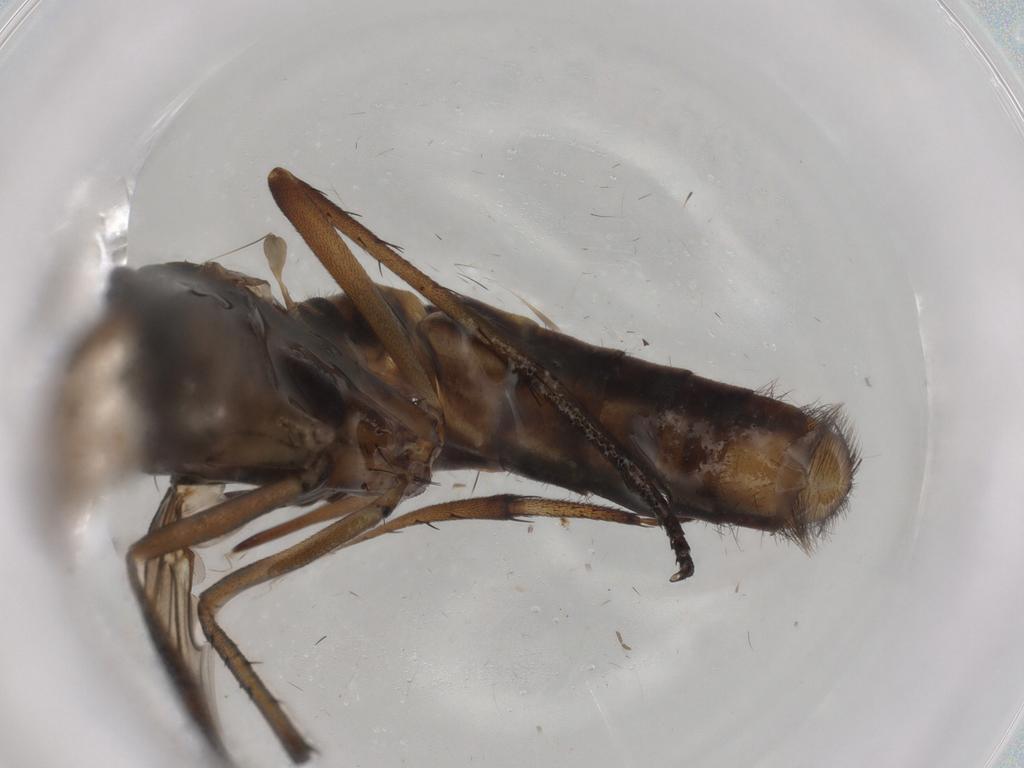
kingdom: Animalia
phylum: Arthropoda
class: Insecta
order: Diptera
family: Chironomidae
